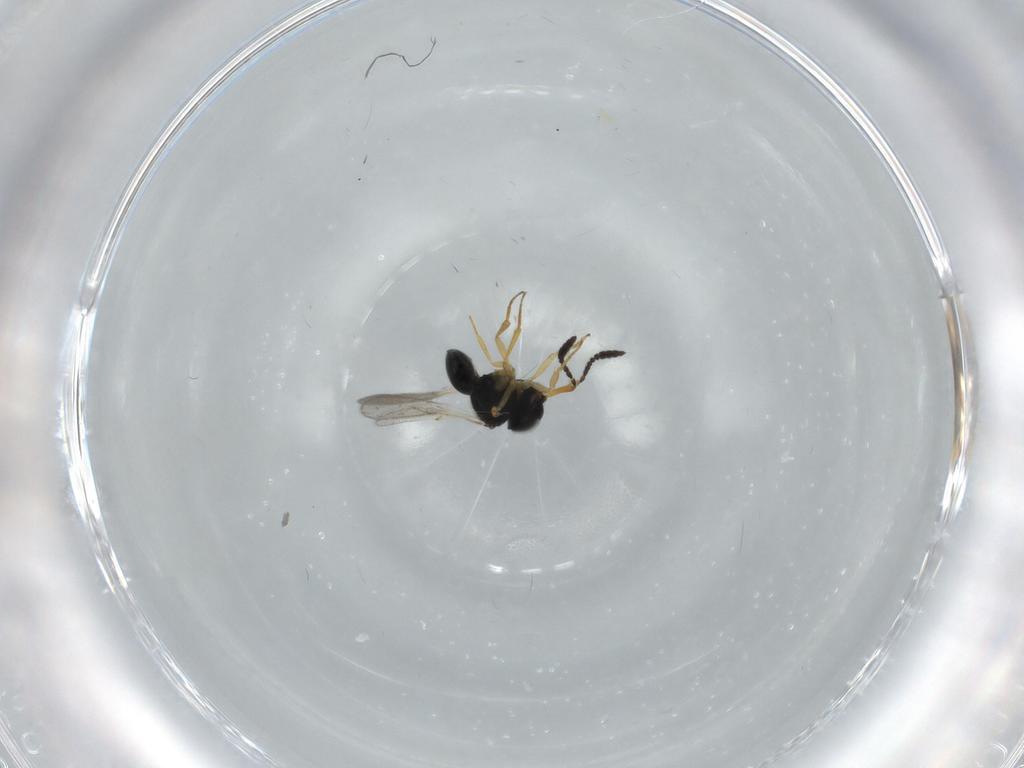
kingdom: Animalia
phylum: Arthropoda
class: Insecta
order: Hymenoptera
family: Scelionidae
